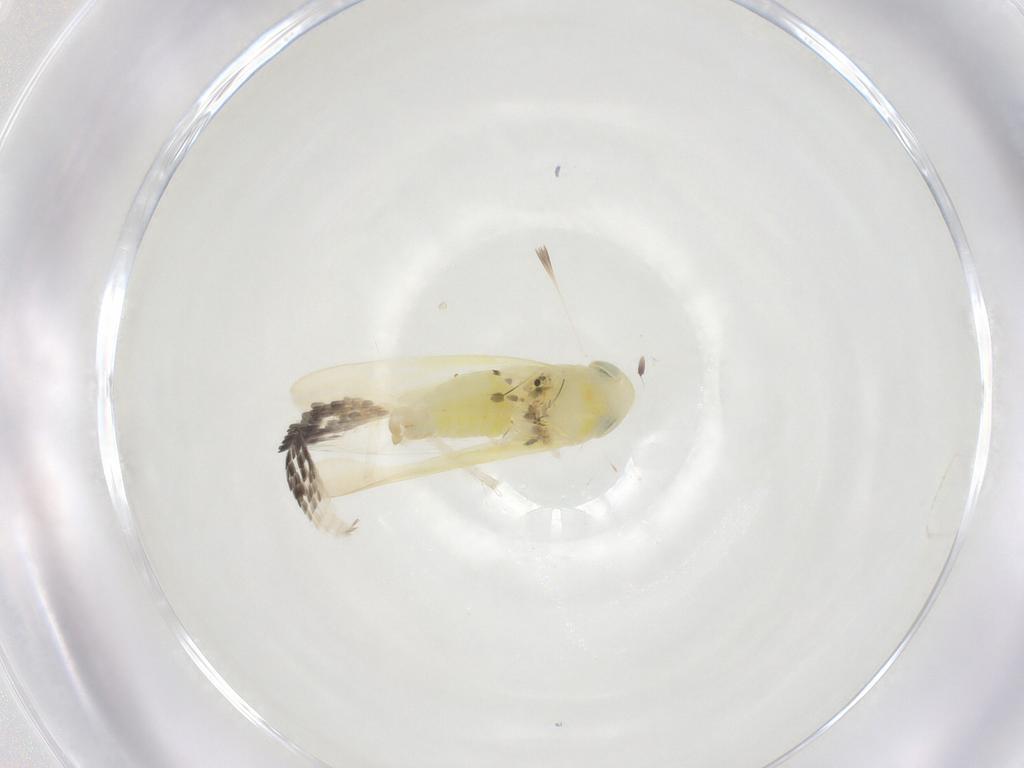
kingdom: Animalia
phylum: Arthropoda
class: Insecta
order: Hemiptera
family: Cicadellidae
